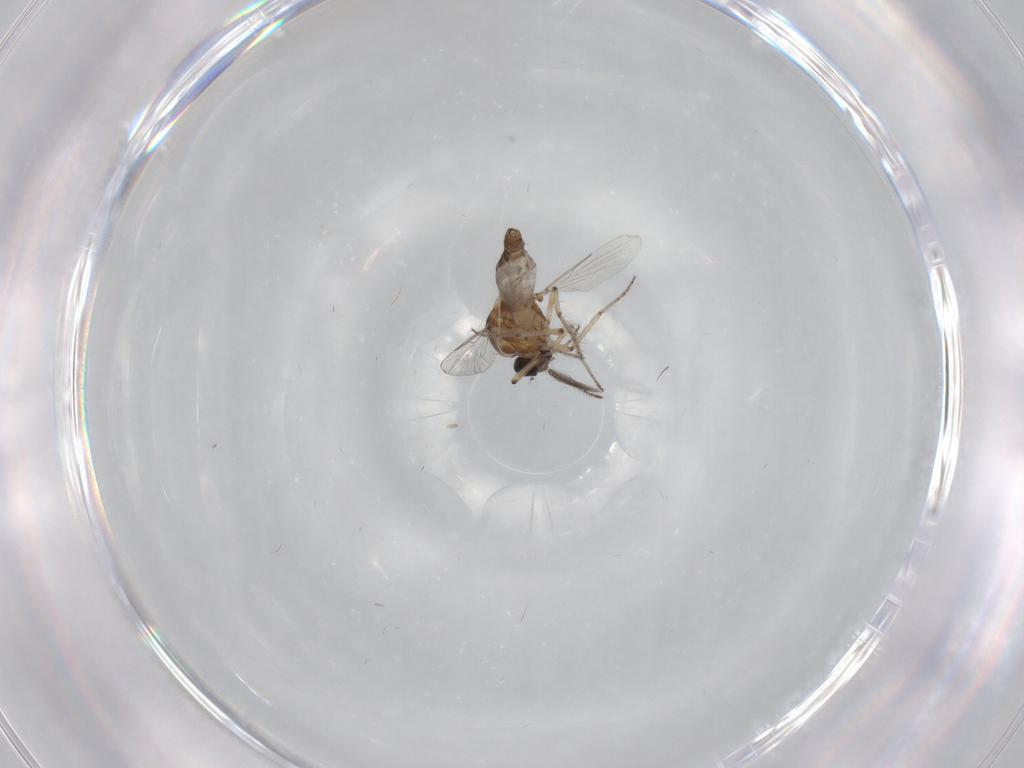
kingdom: Animalia
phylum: Arthropoda
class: Insecta
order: Diptera
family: Ceratopogonidae
